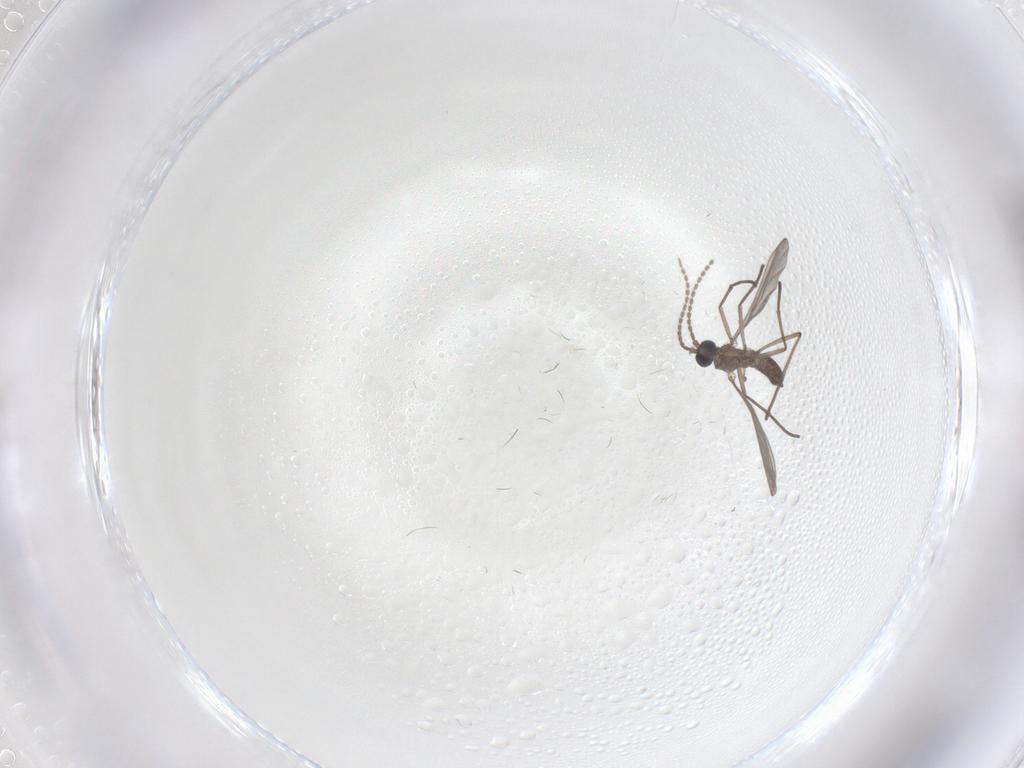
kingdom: Animalia
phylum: Arthropoda
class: Insecta
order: Diptera
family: Sciaridae
